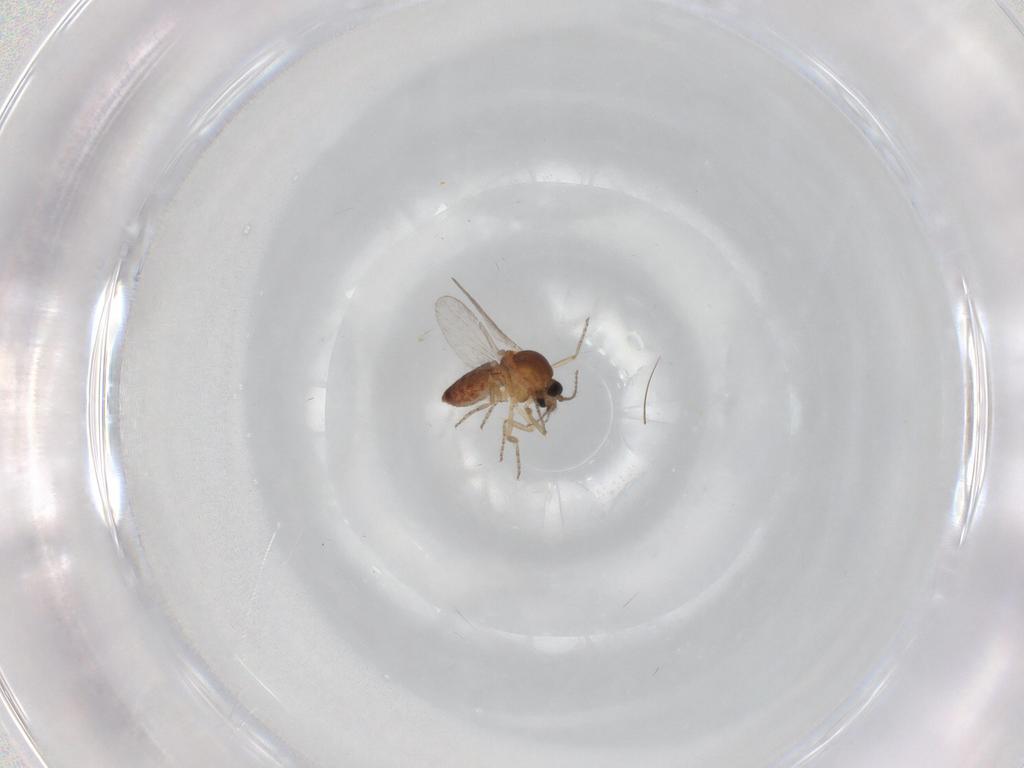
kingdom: Animalia
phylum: Arthropoda
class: Insecta
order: Diptera
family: Ceratopogonidae
